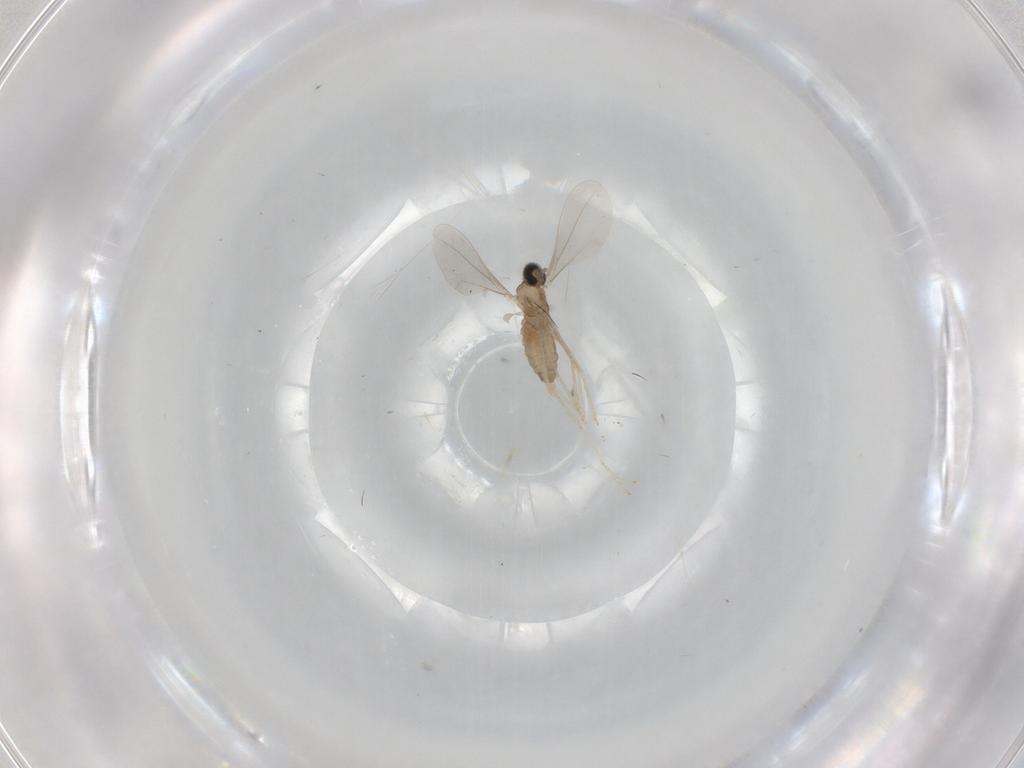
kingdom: Animalia
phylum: Arthropoda
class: Insecta
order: Diptera
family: Cecidomyiidae
